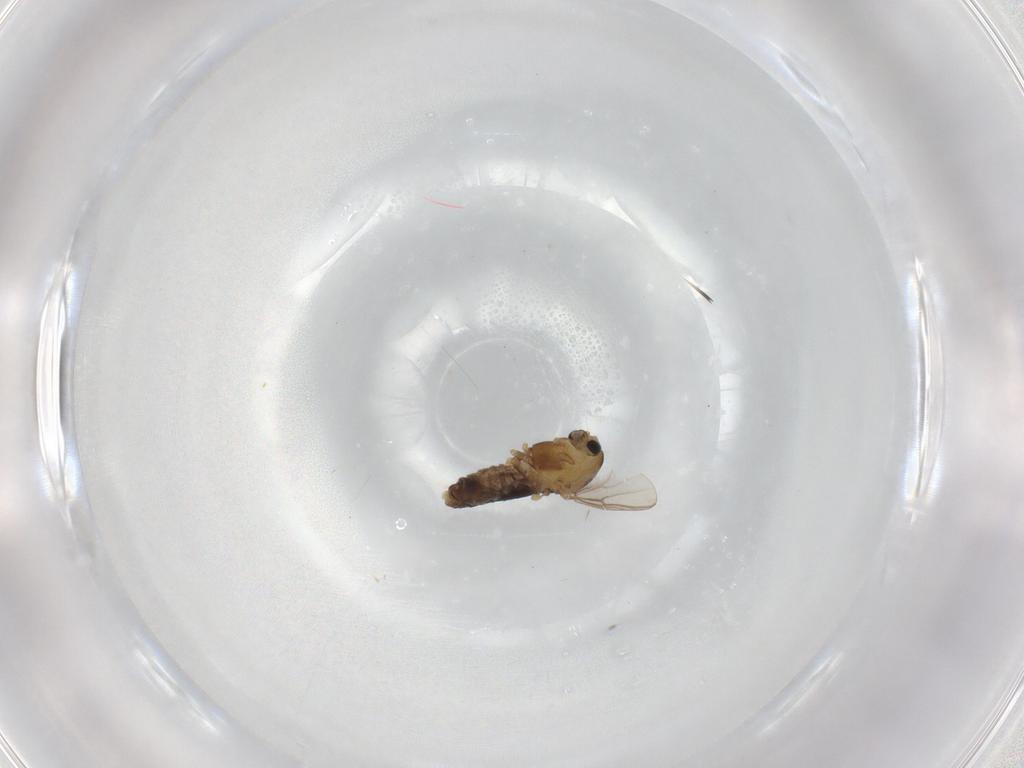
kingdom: Animalia
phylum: Arthropoda
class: Insecta
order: Diptera
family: Chironomidae
